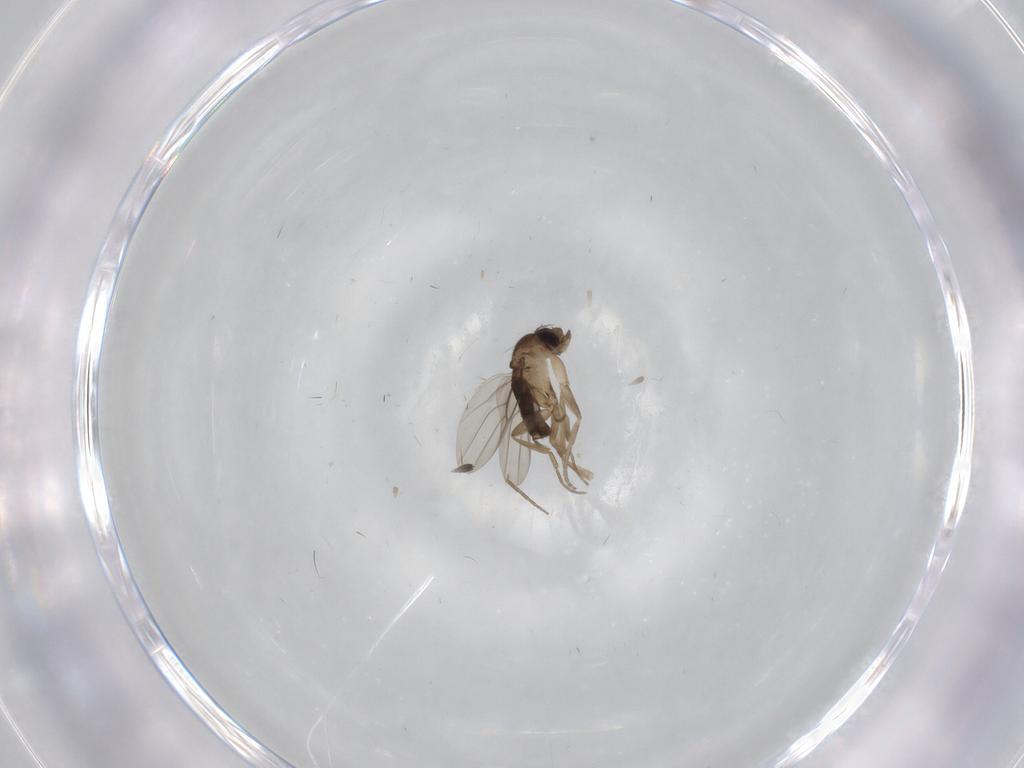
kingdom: Animalia
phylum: Arthropoda
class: Insecta
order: Diptera
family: Phoridae
